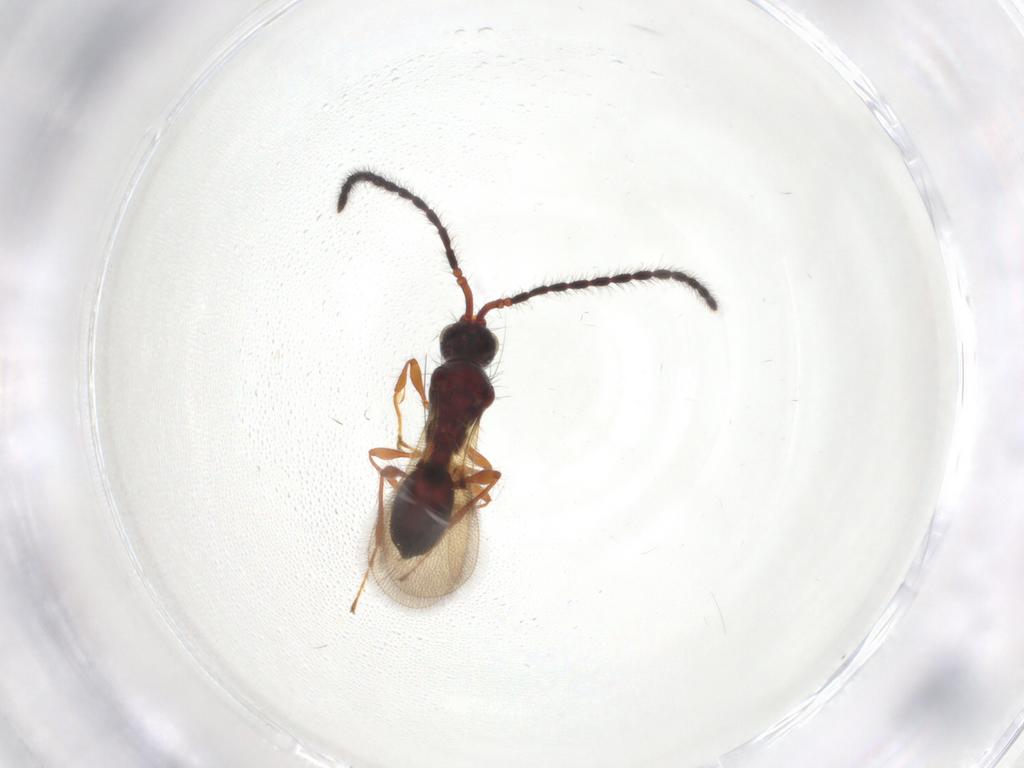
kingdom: Animalia
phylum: Arthropoda
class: Insecta
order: Hymenoptera
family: Diapriidae
